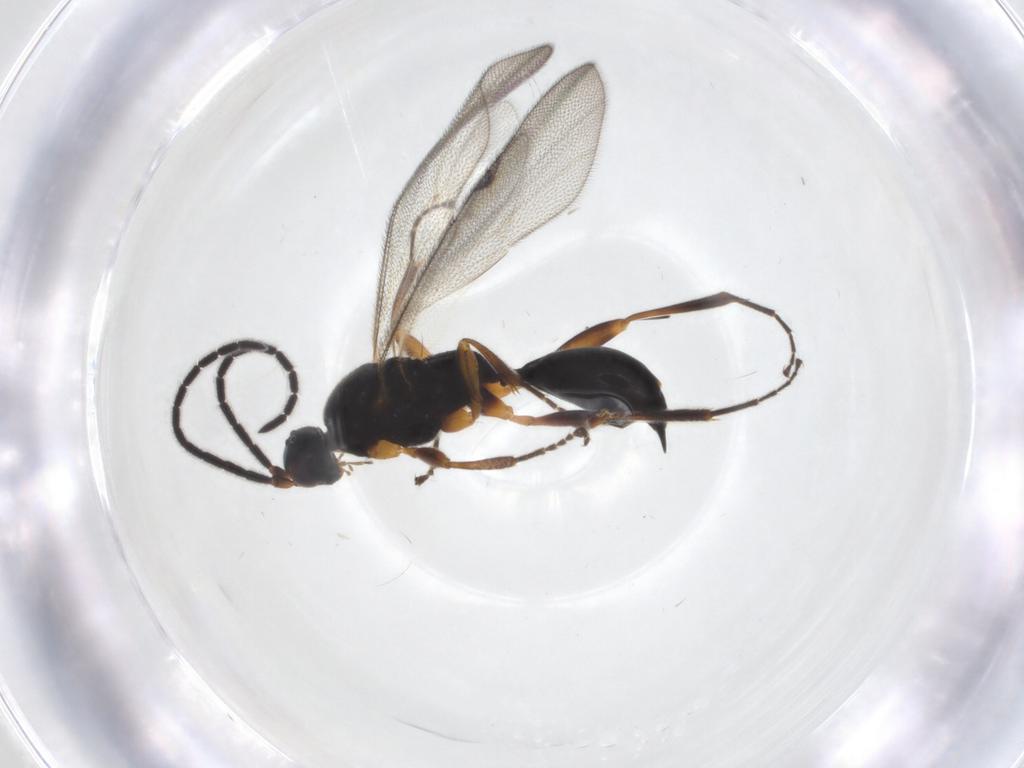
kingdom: Animalia
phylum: Arthropoda
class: Insecta
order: Hymenoptera
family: Proctotrupidae
